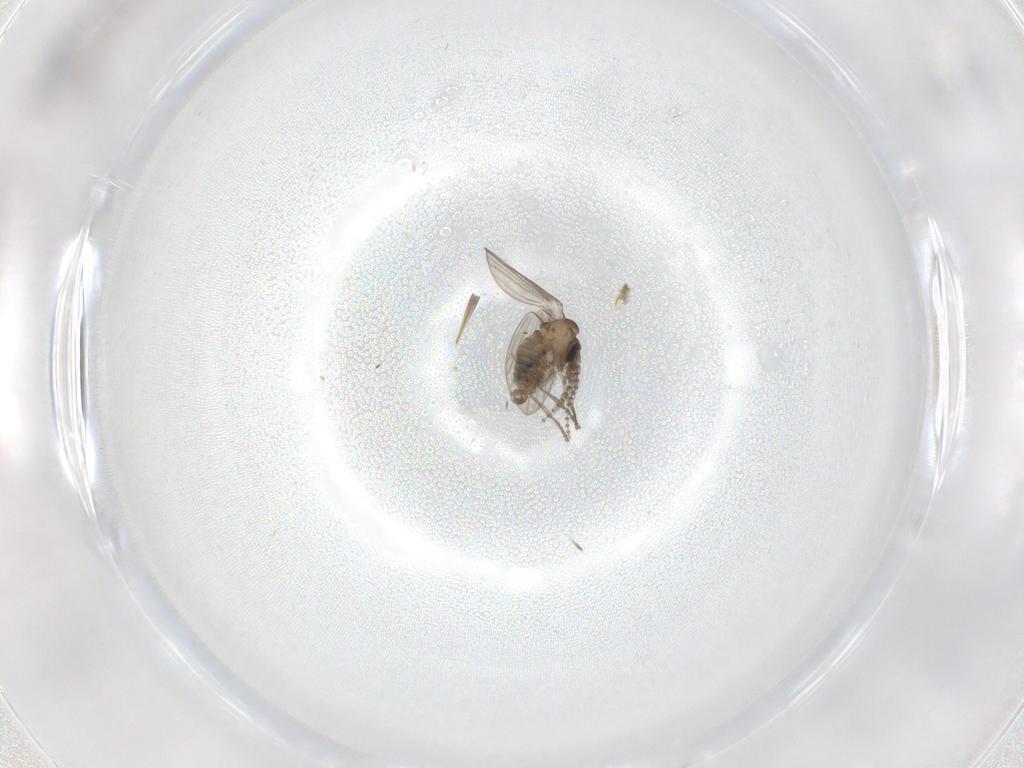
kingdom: Animalia
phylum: Arthropoda
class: Insecta
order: Diptera
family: Psychodidae
